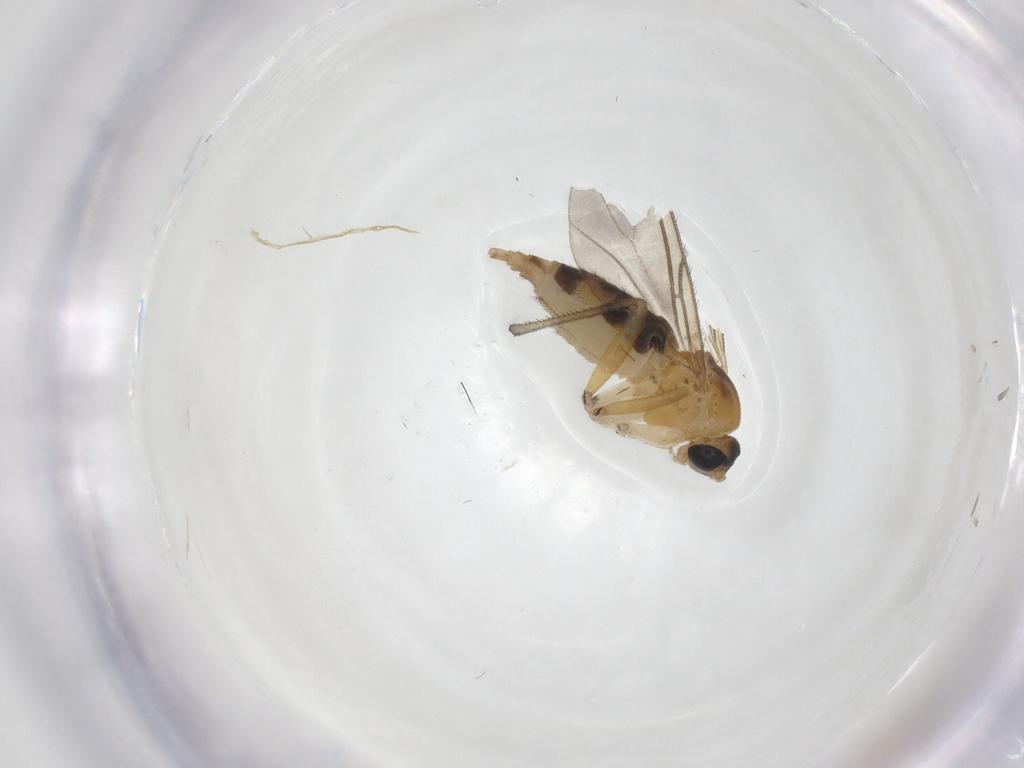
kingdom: Animalia
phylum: Arthropoda
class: Insecta
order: Diptera
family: Sciaridae
